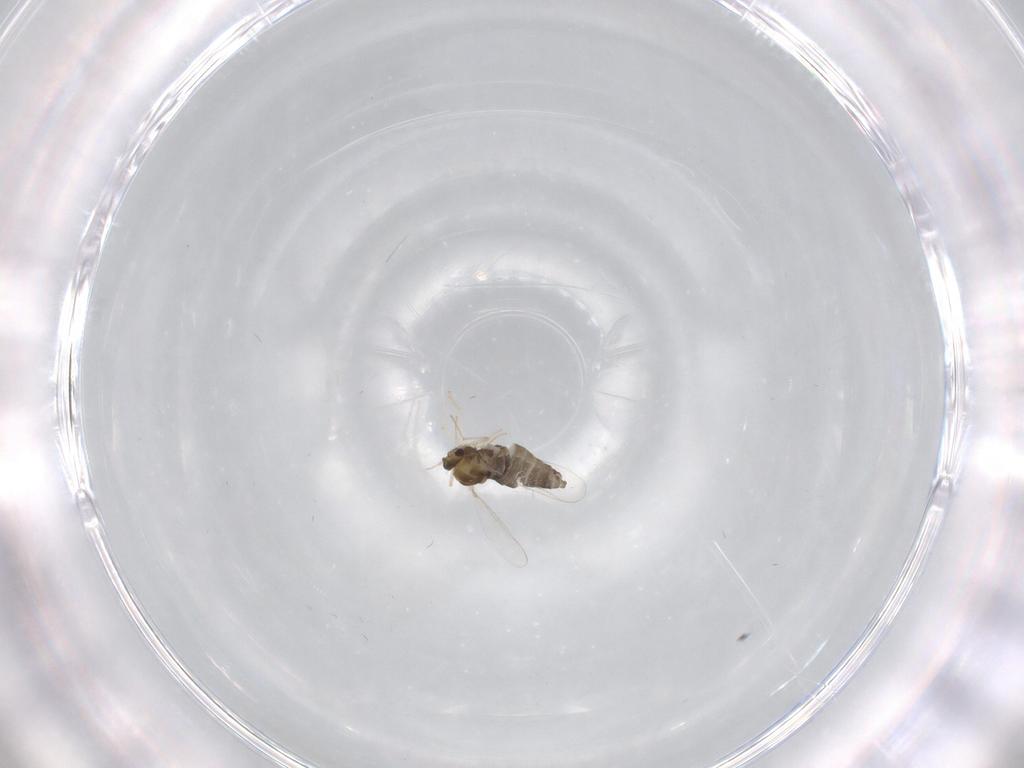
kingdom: Animalia
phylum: Arthropoda
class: Insecta
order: Diptera
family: Chironomidae
